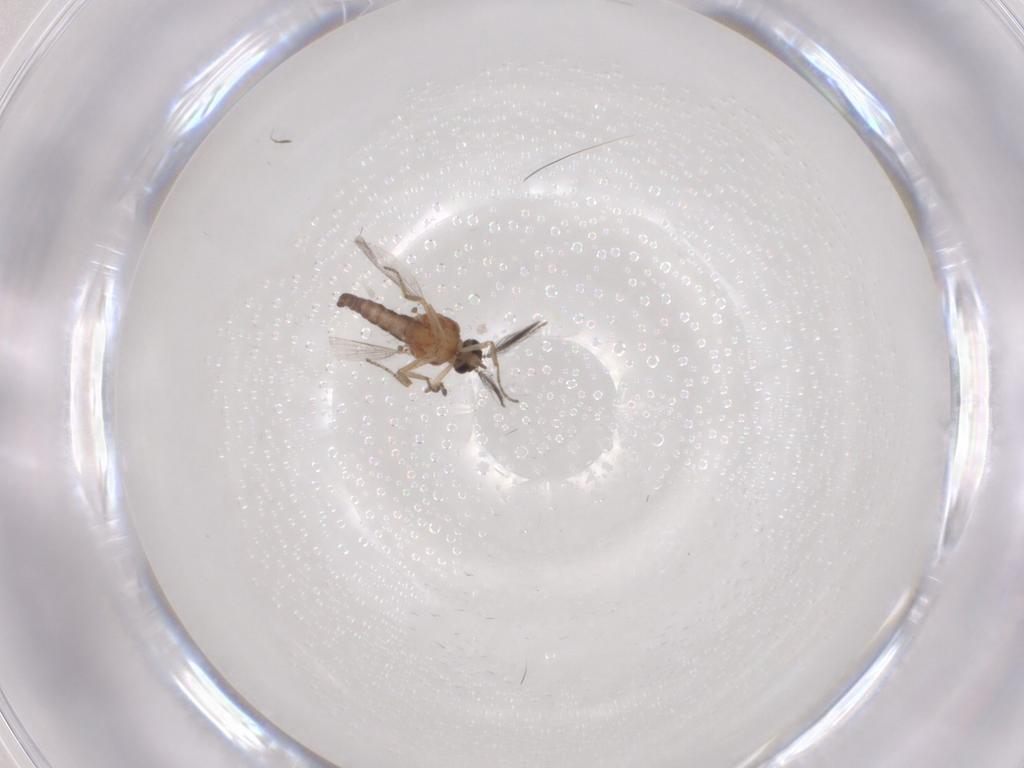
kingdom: Animalia
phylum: Arthropoda
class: Insecta
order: Diptera
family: Ceratopogonidae
